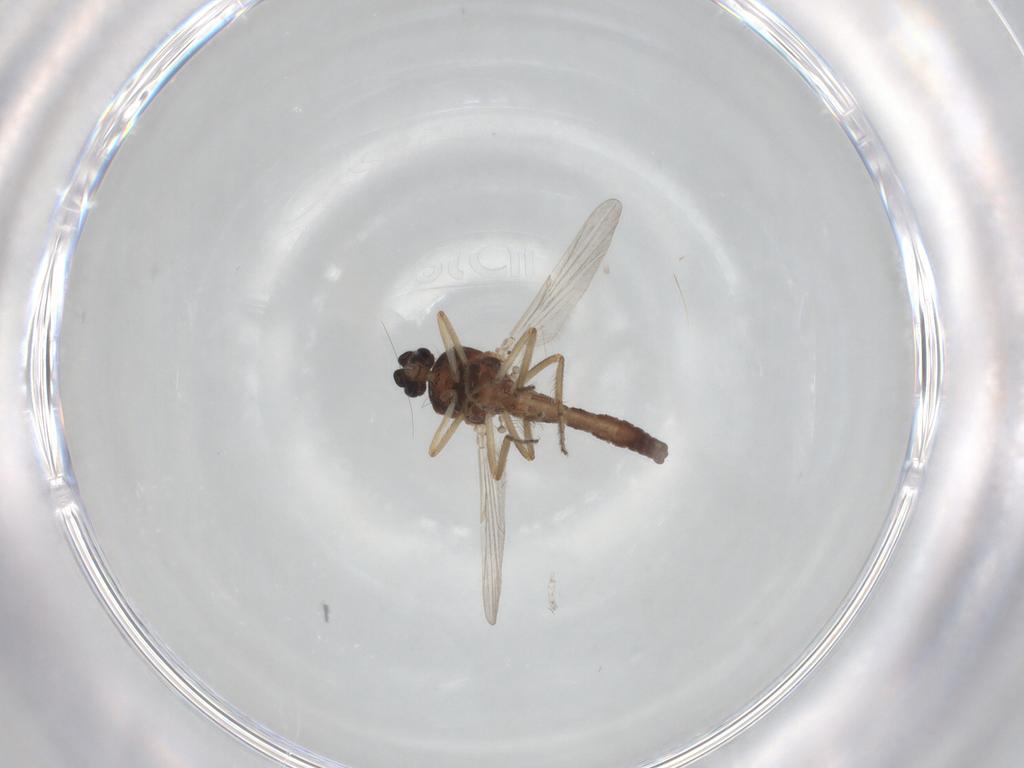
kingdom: Animalia
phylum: Arthropoda
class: Insecta
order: Diptera
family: Ceratopogonidae
